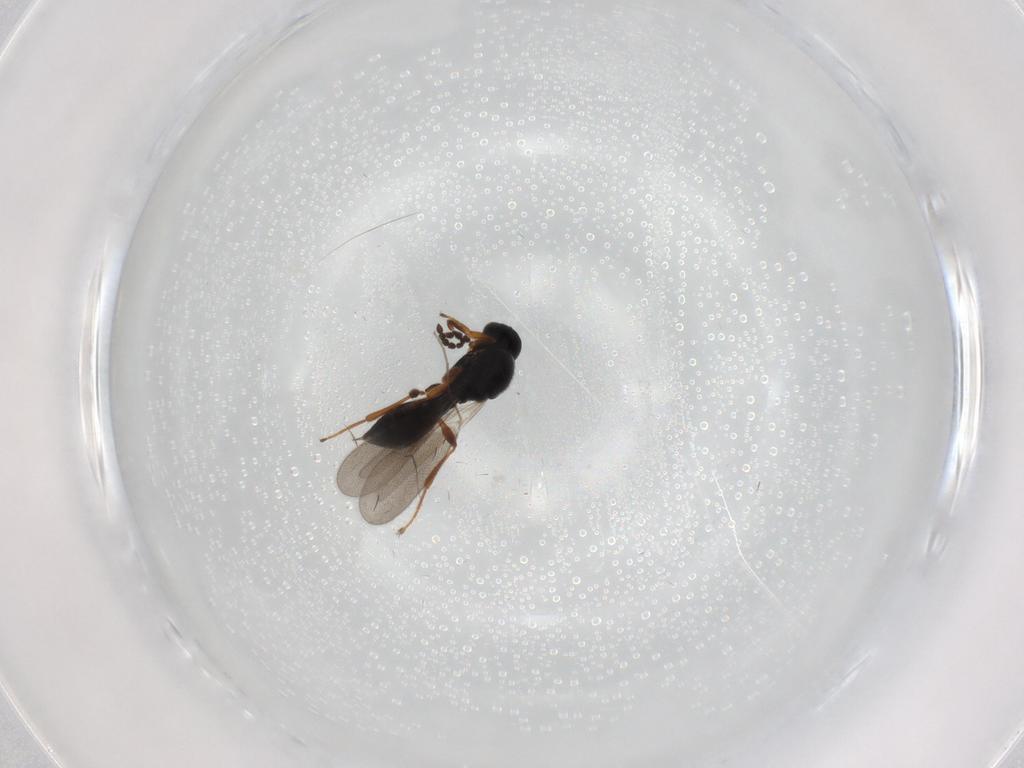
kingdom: Animalia
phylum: Arthropoda
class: Insecta
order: Hymenoptera
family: Platygastridae
